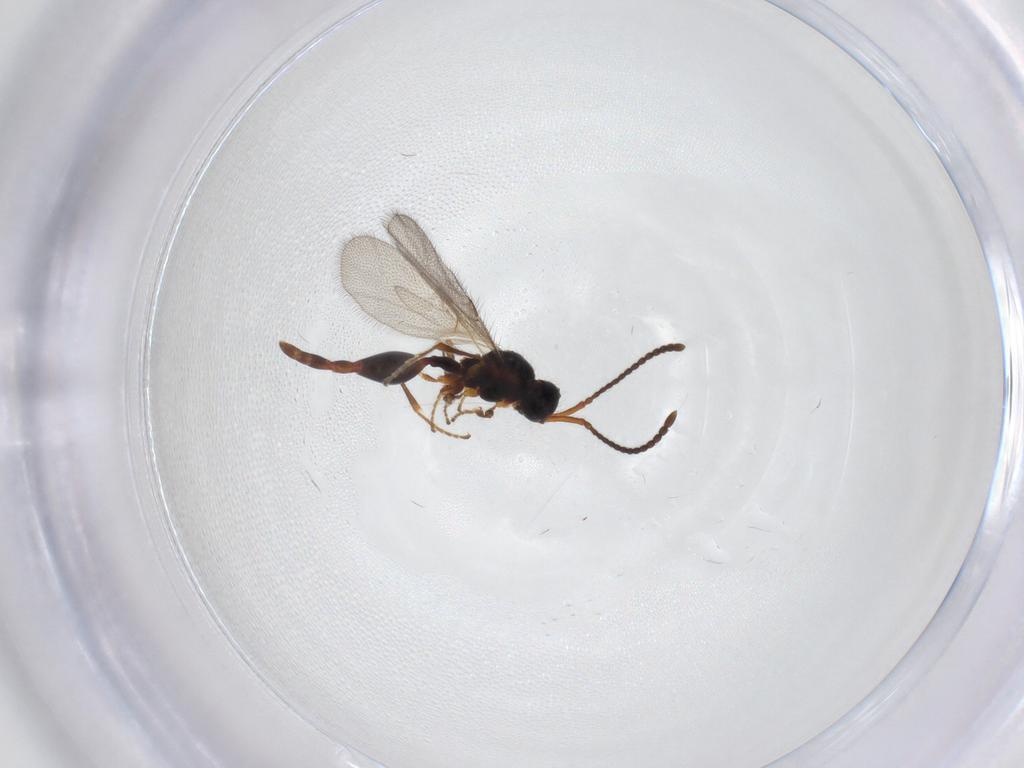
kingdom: Animalia
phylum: Arthropoda
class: Insecta
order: Hymenoptera
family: Diapriidae
